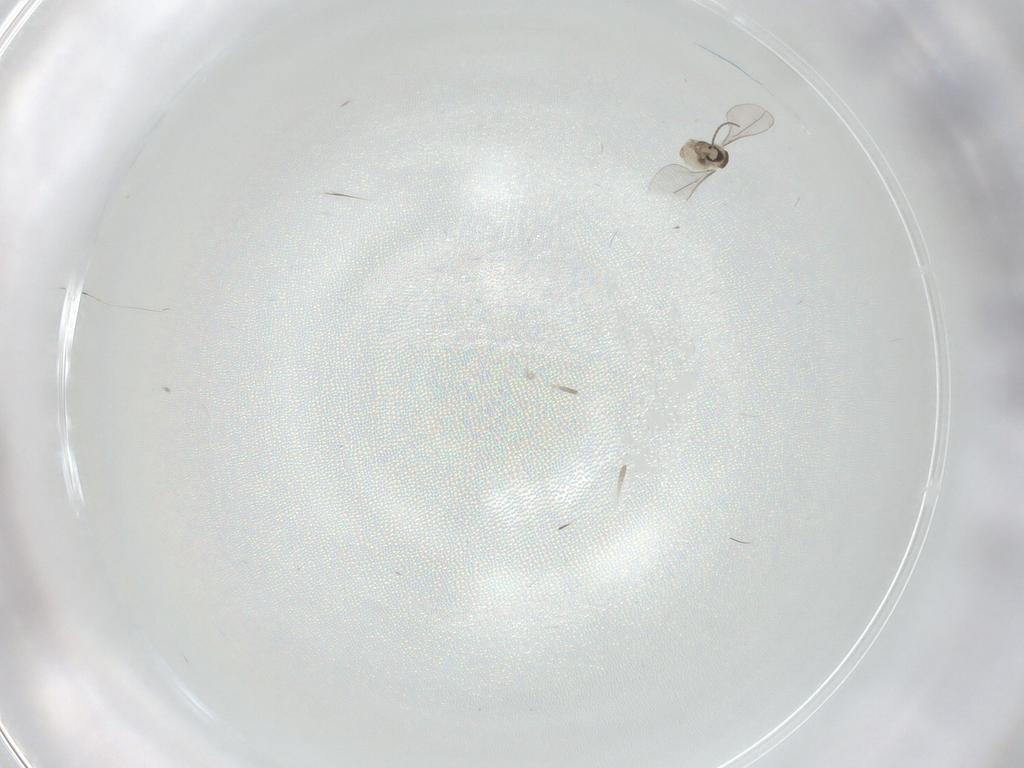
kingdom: Animalia
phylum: Arthropoda
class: Insecta
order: Diptera
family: Cecidomyiidae
